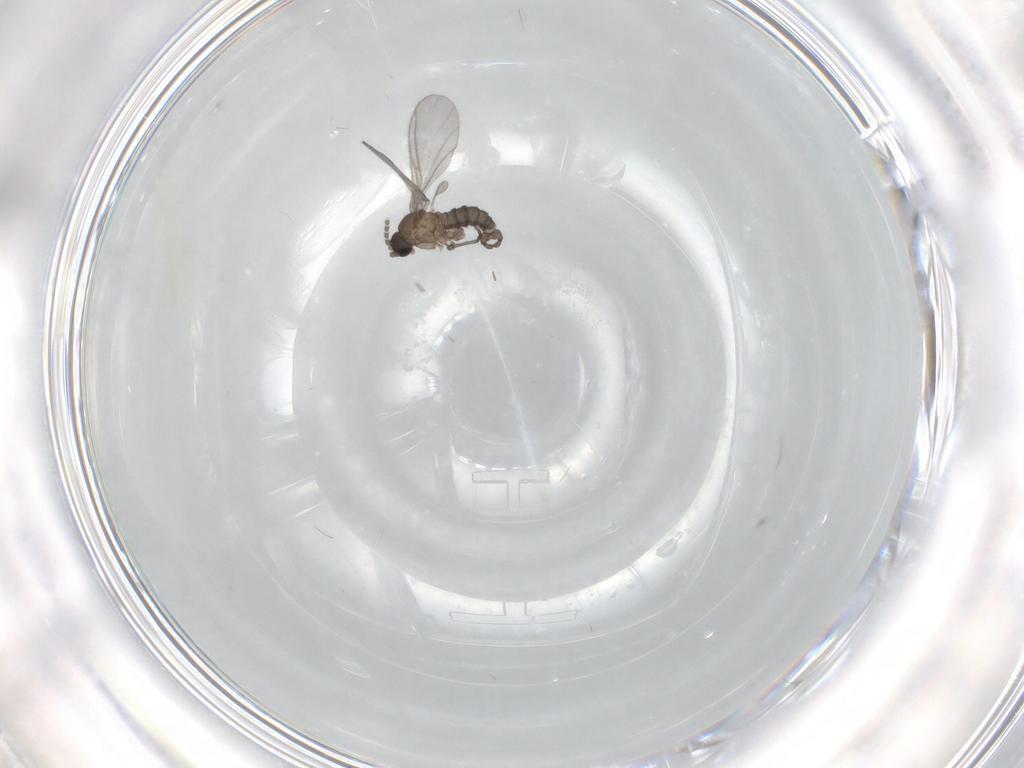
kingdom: Animalia
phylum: Arthropoda
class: Insecta
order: Diptera
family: Sciaridae
